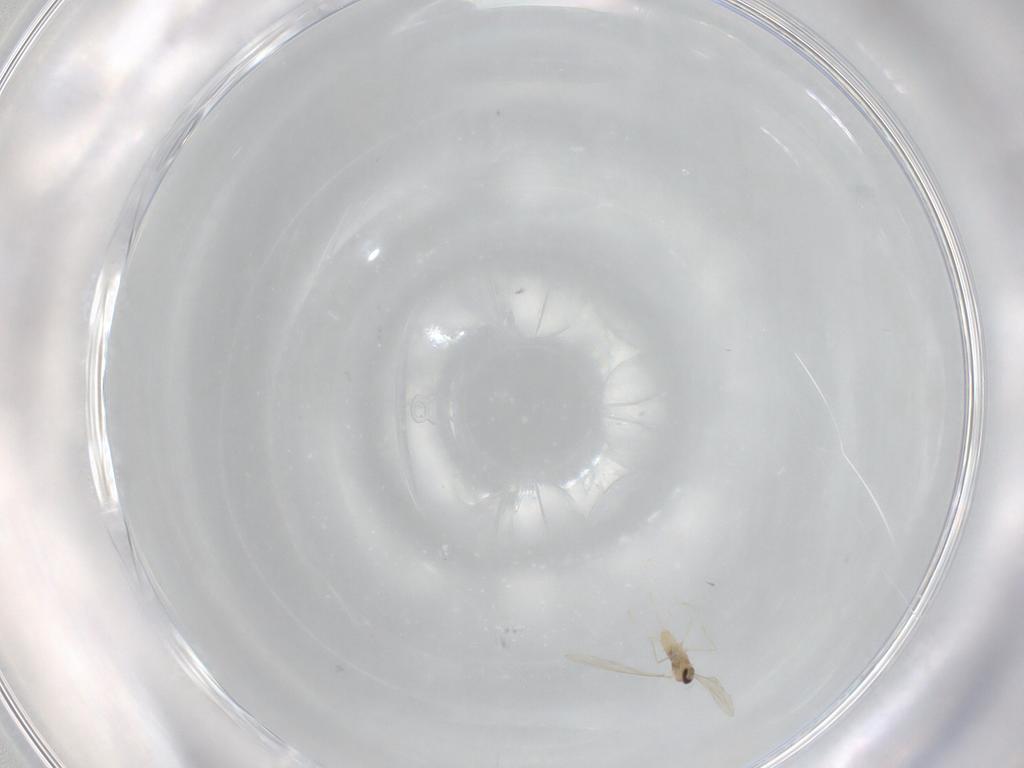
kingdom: Animalia
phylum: Arthropoda
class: Insecta
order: Diptera
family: Cecidomyiidae
